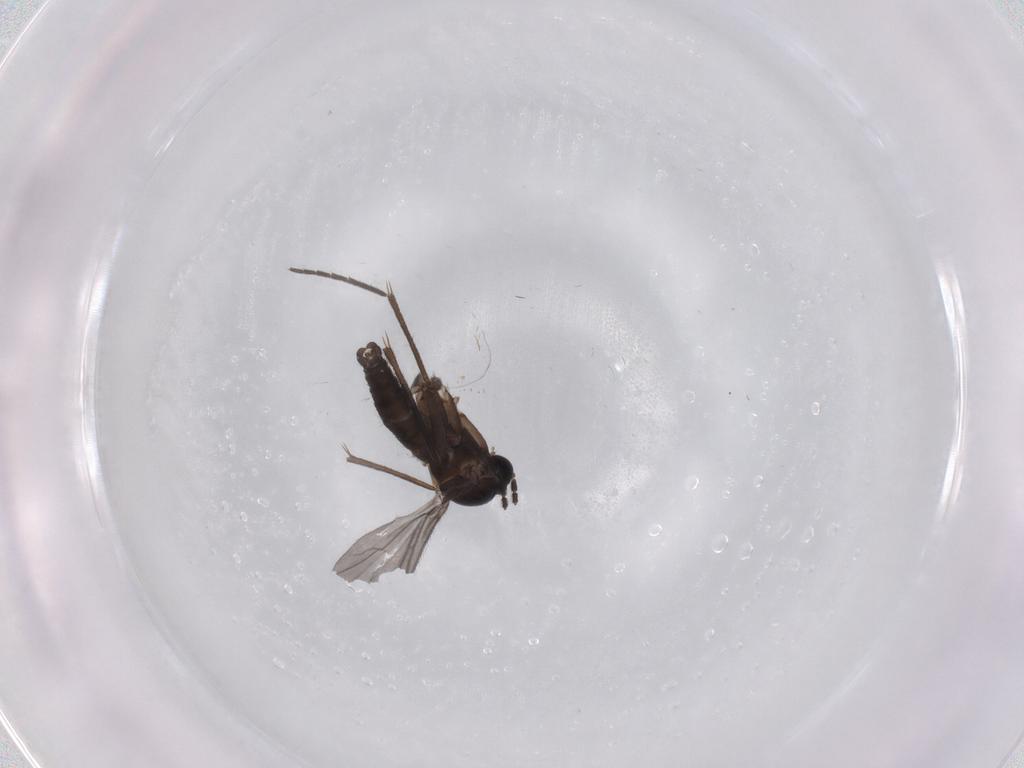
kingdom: Animalia
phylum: Arthropoda
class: Insecta
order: Diptera
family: Sciaridae
